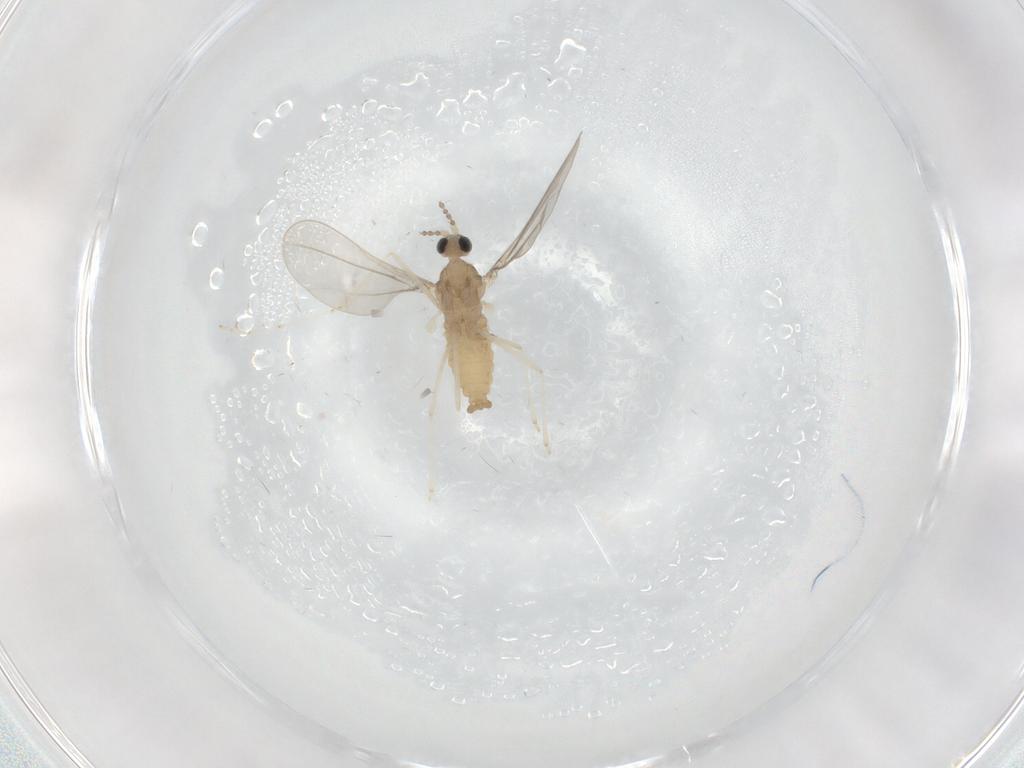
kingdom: Animalia
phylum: Arthropoda
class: Insecta
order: Diptera
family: Cecidomyiidae
